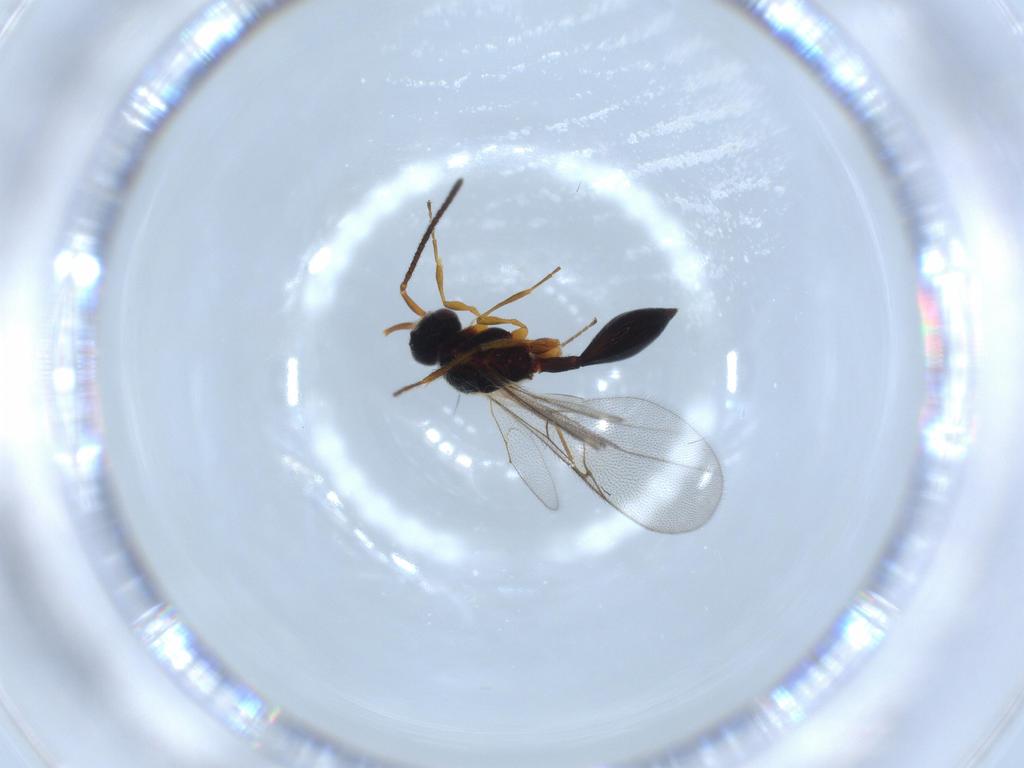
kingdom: Animalia
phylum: Arthropoda
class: Insecta
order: Hymenoptera
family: Diapriidae
